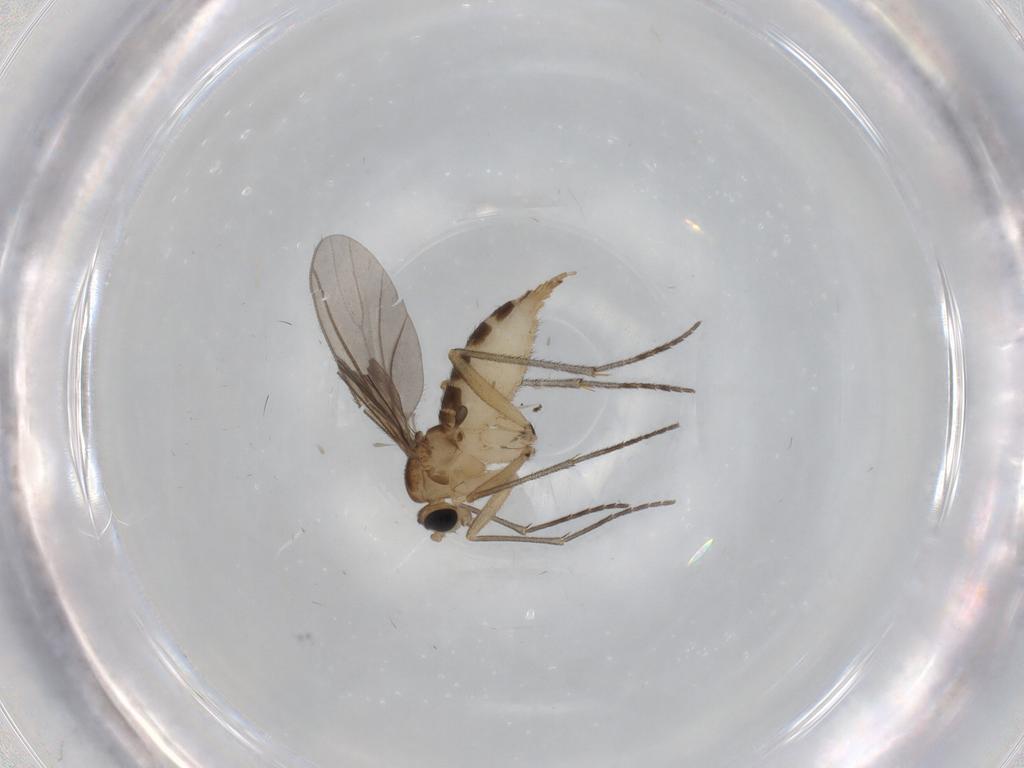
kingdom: Animalia
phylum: Arthropoda
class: Insecta
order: Diptera
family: Sciaridae
